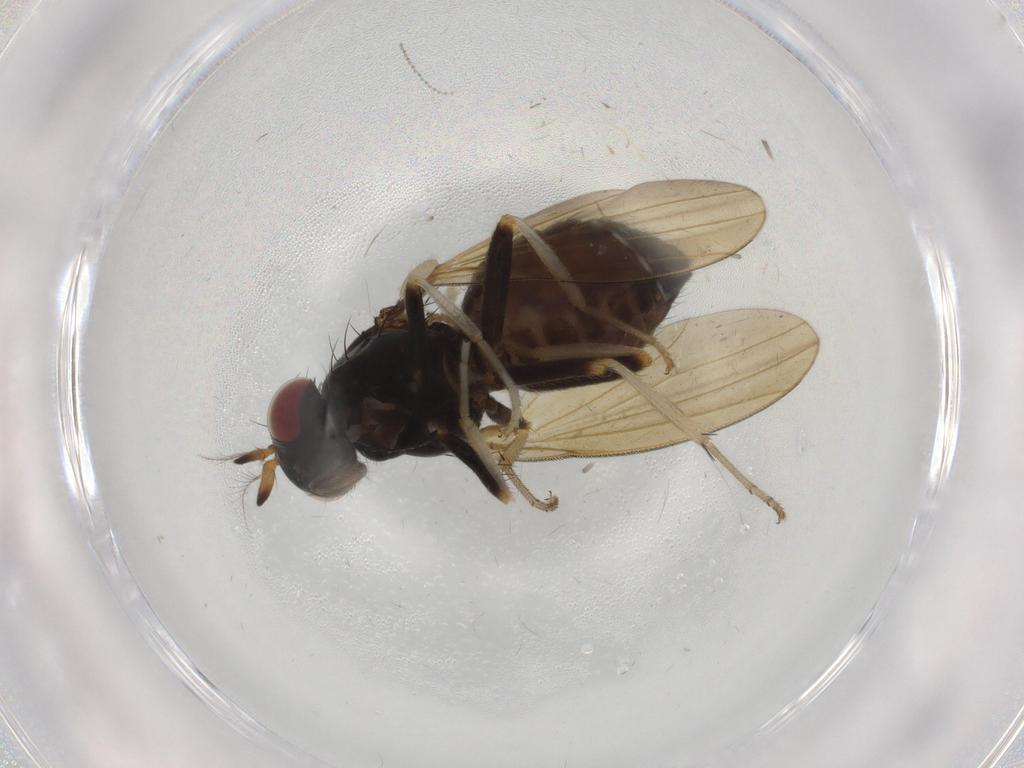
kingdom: Animalia
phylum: Arthropoda
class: Insecta
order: Diptera
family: Chironomidae
